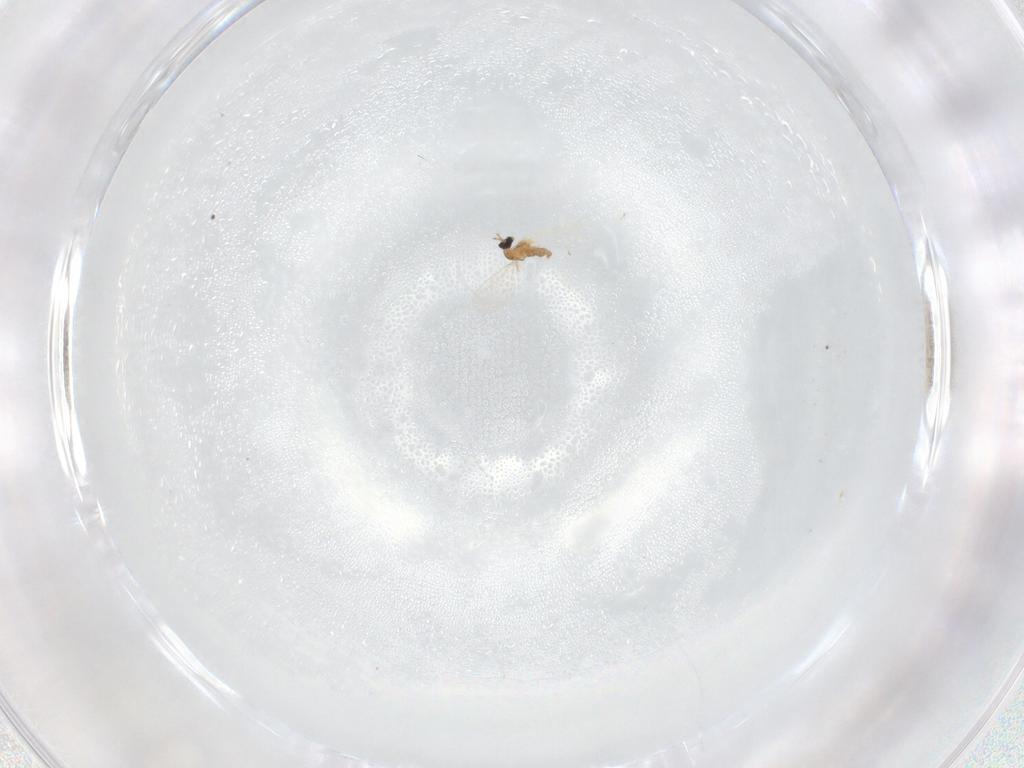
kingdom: Animalia
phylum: Arthropoda
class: Insecta
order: Diptera
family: Cecidomyiidae
